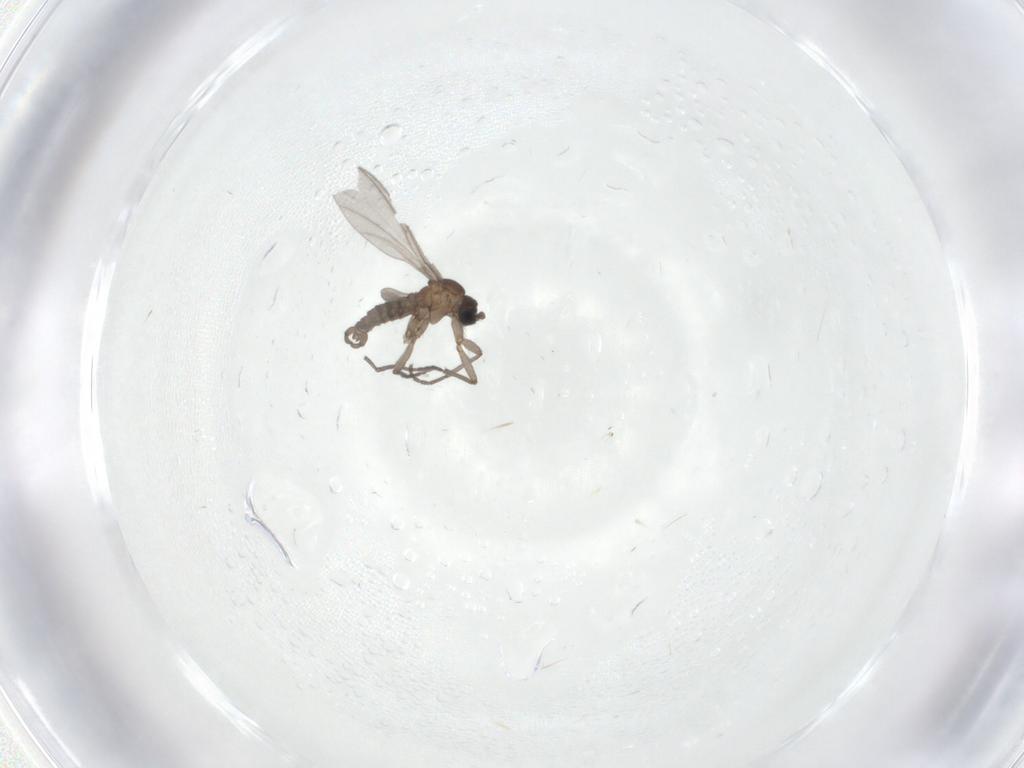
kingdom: Animalia
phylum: Arthropoda
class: Insecta
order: Diptera
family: Sciaridae
